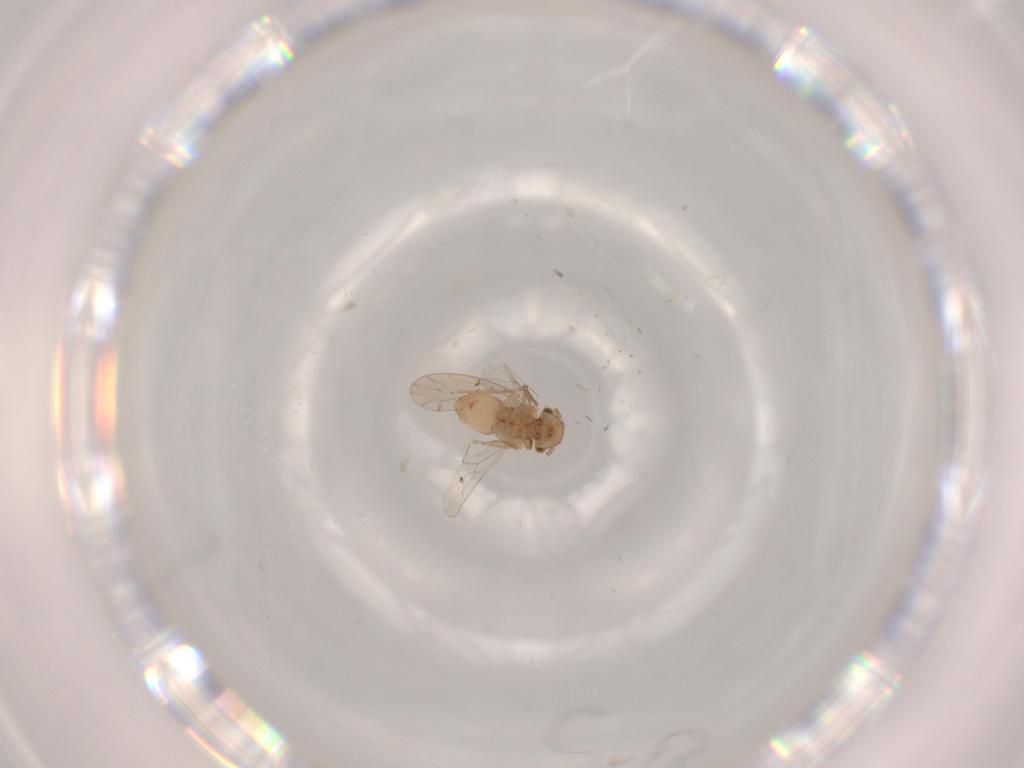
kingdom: Animalia
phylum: Arthropoda
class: Insecta
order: Psocodea
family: Ectopsocidae
